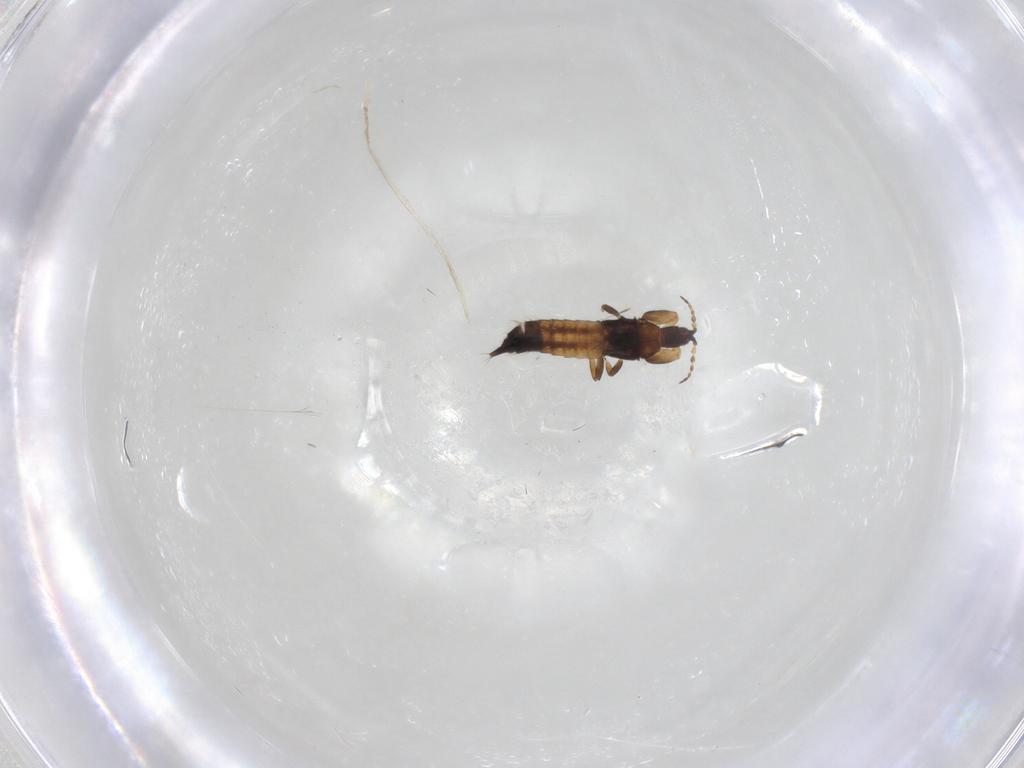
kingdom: Animalia
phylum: Arthropoda
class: Insecta
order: Thysanoptera
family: Phlaeothripidae
